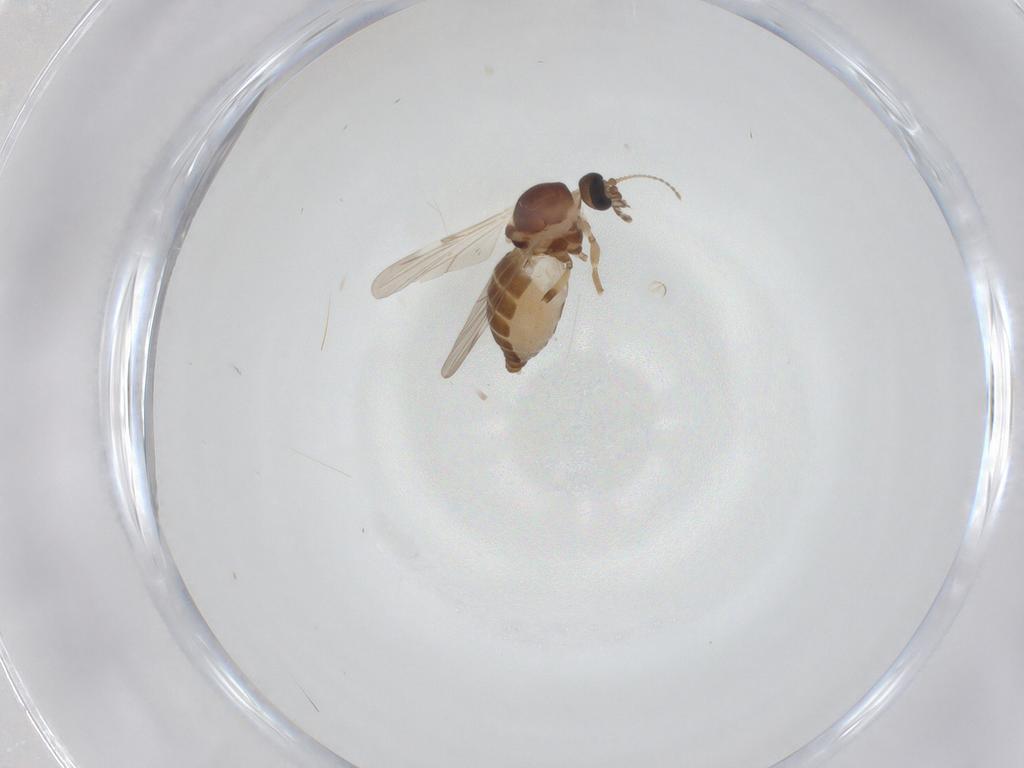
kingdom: Animalia
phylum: Arthropoda
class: Insecta
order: Diptera
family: Ceratopogonidae
